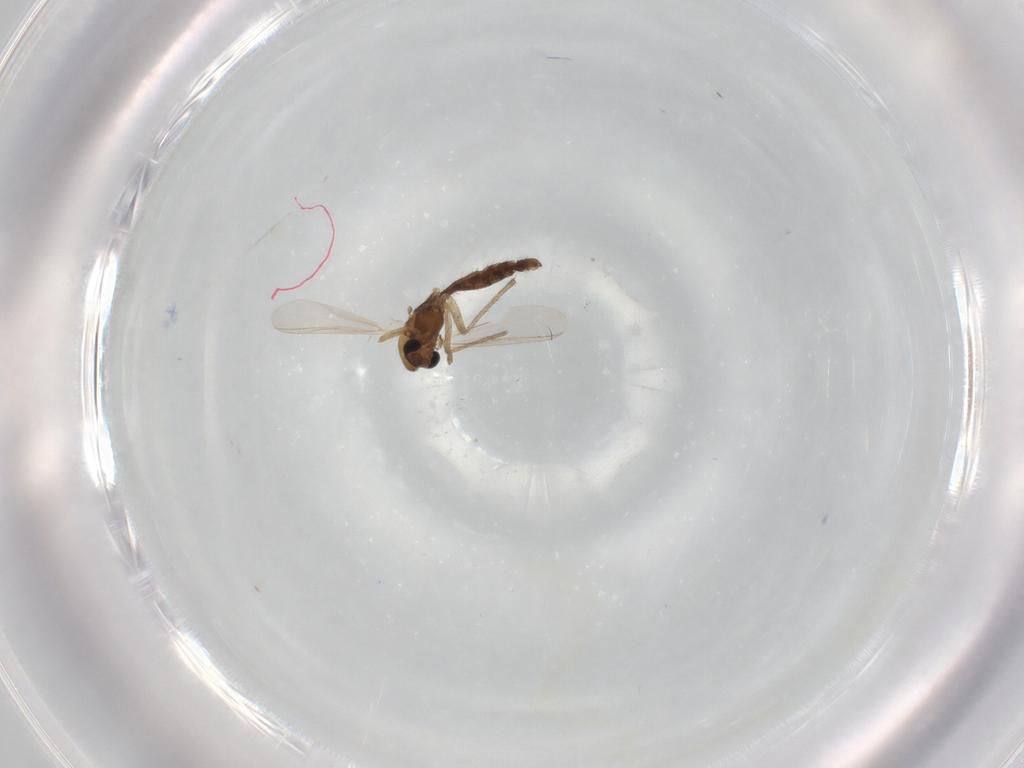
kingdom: Animalia
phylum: Arthropoda
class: Insecta
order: Diptera
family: Chironomidae
